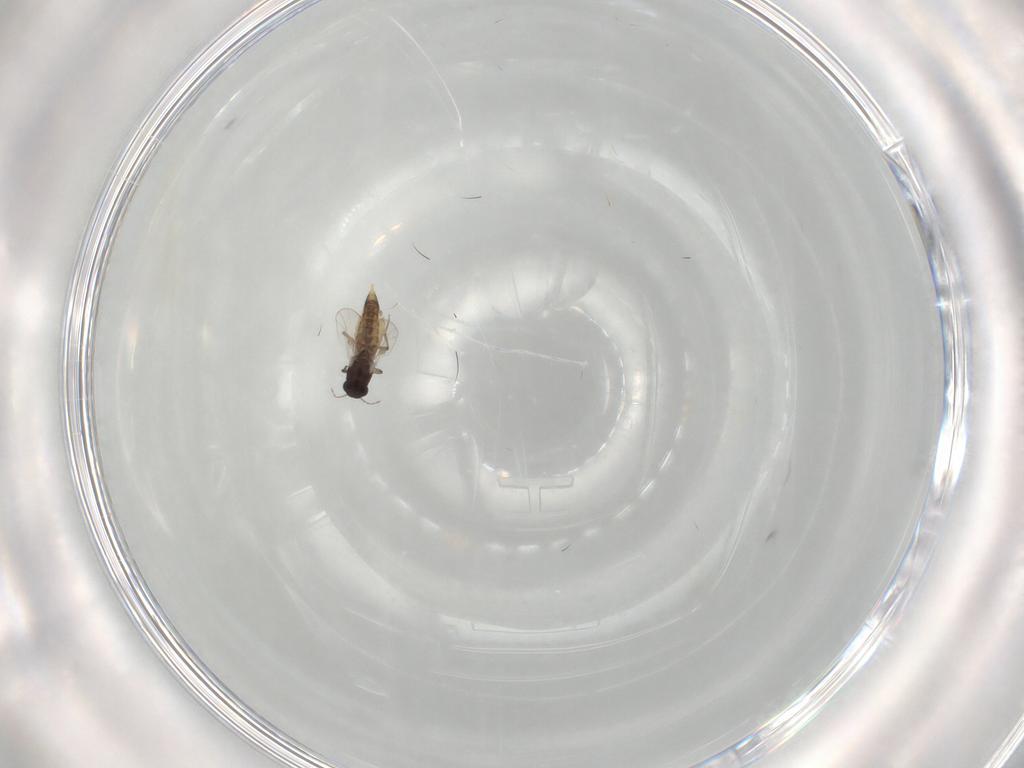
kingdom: Animalia
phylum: Arthropoda
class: Insecta
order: Diptera
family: Chironomidae
